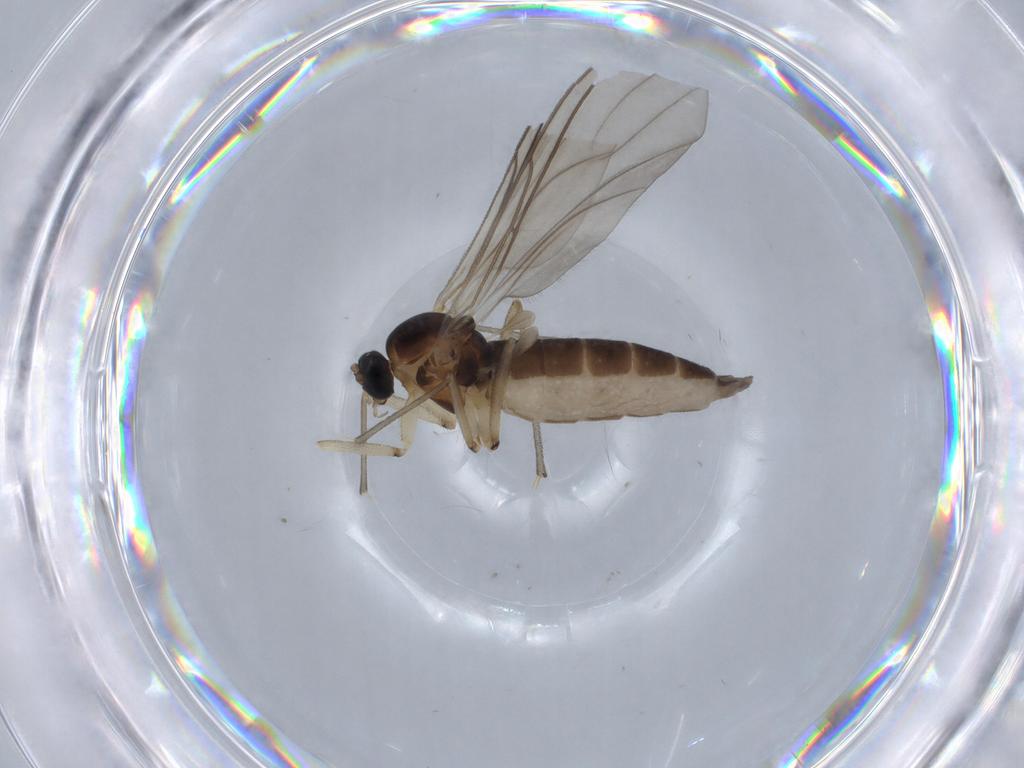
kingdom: Animalia
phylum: Arthropoda
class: Insecta
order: Diptera
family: Sciaridae
